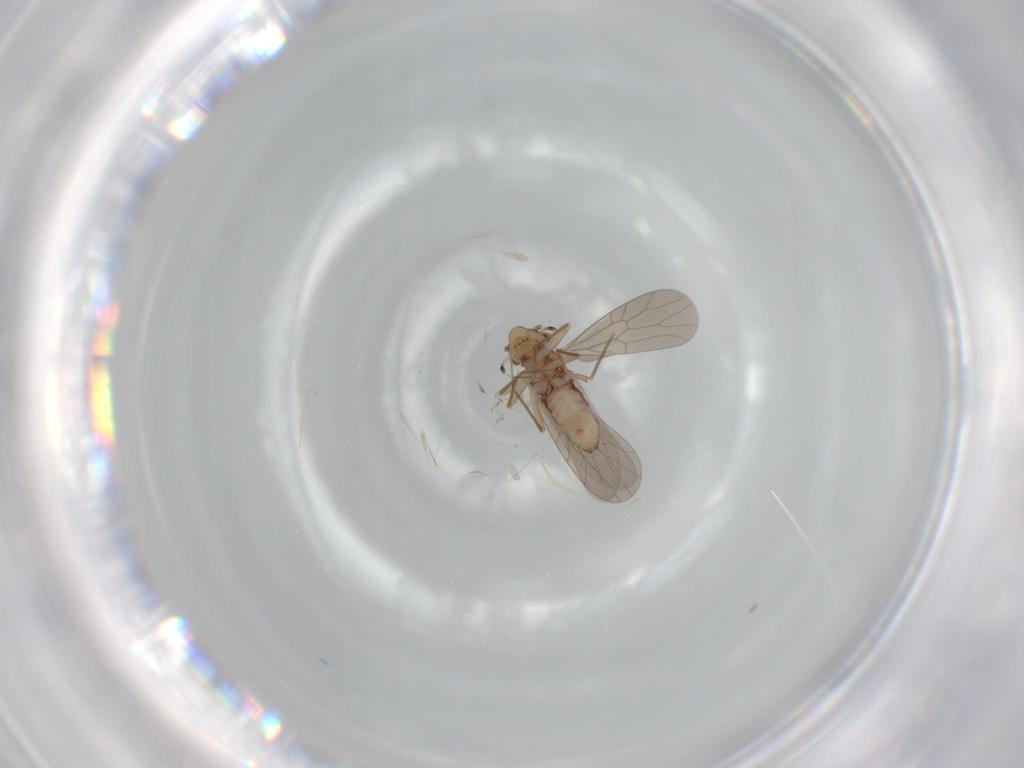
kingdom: Animalia
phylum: Arthropoda
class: Insecta
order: Psocodea
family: Lepidopsocidae
